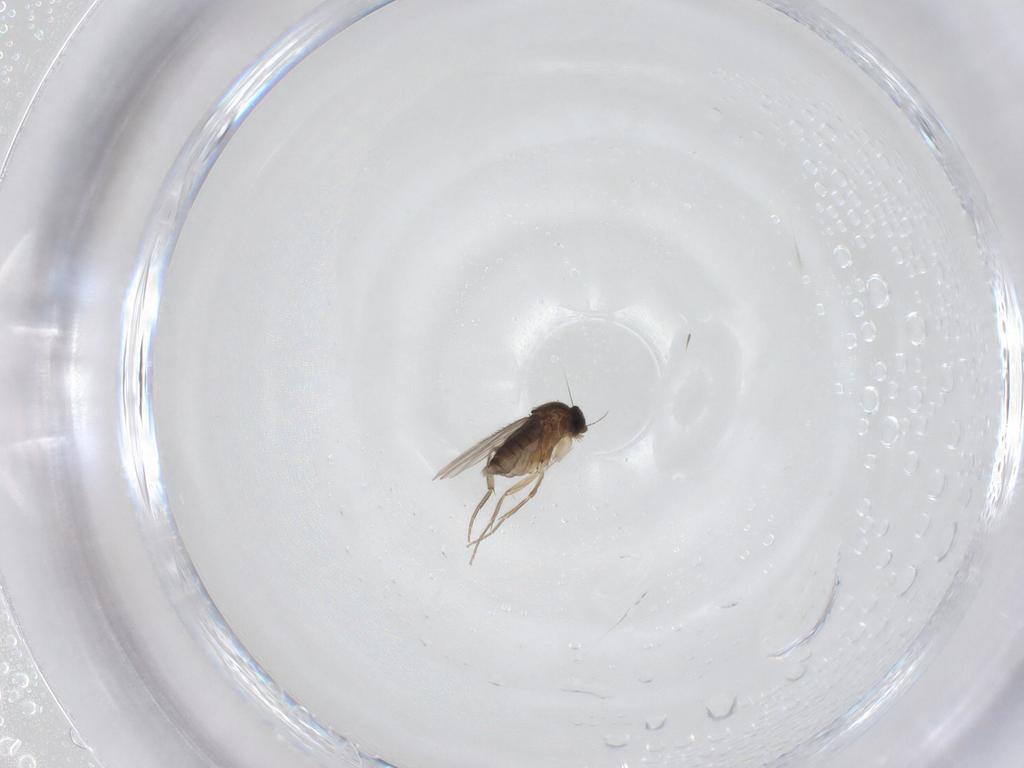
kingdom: Animalia
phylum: Arthropoda
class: Insecta
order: Diptera
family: Phoridae
